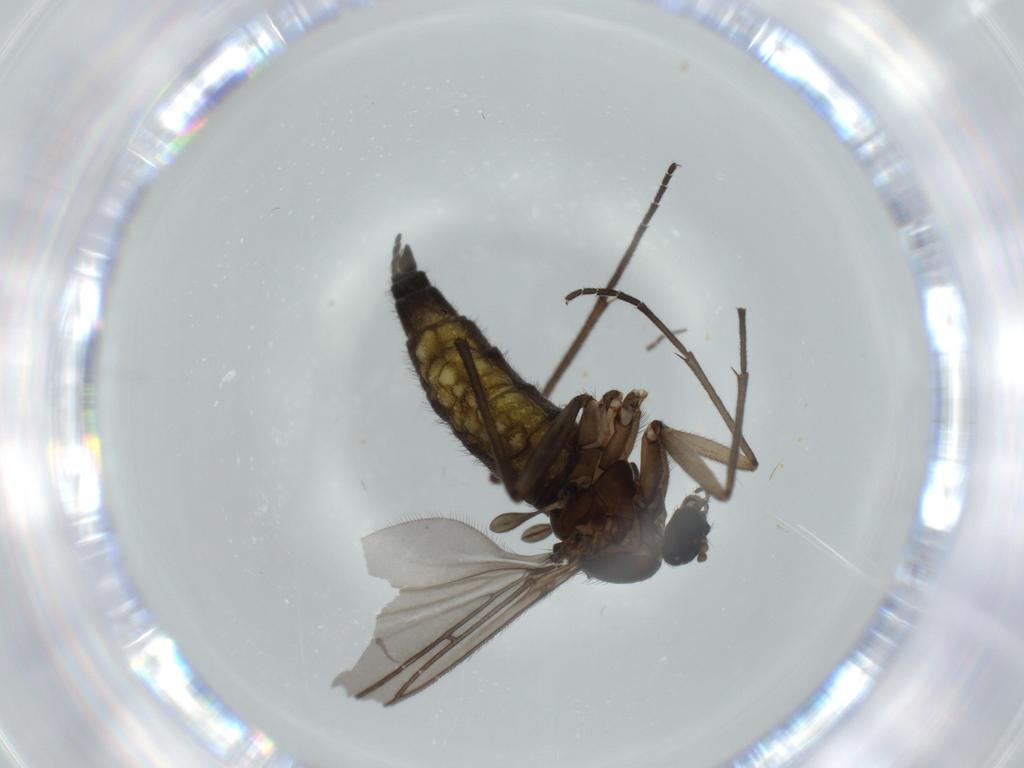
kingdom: Animalia
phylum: Arthropoda
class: Insecta
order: Diptera
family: Sciaridae
